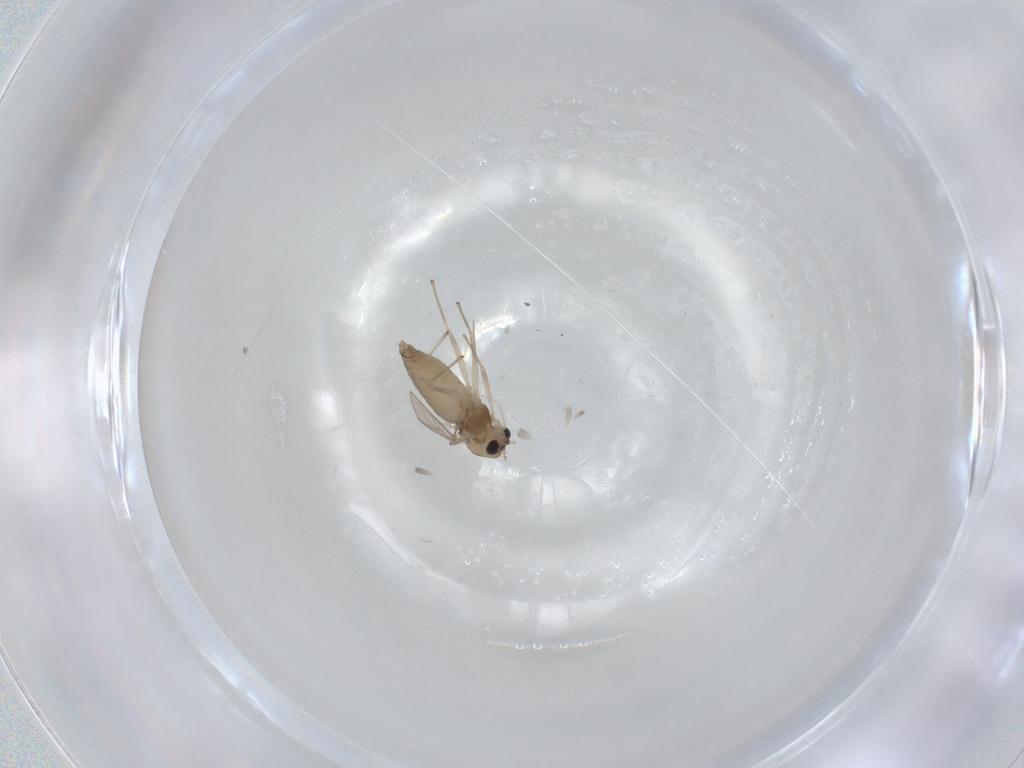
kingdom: Animalia
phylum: Arthropoda
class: Insecta
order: Diptera
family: Chironomidae
